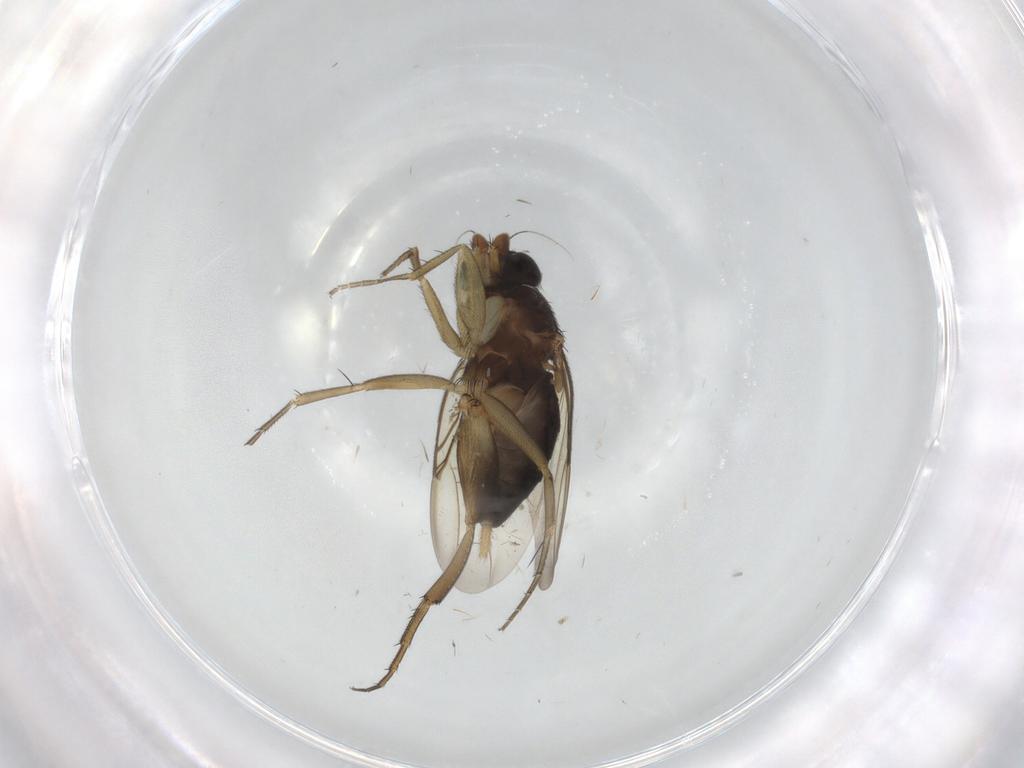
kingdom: Animalia
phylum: Arthropoda
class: Insecta
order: Diptera
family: Phoridae
